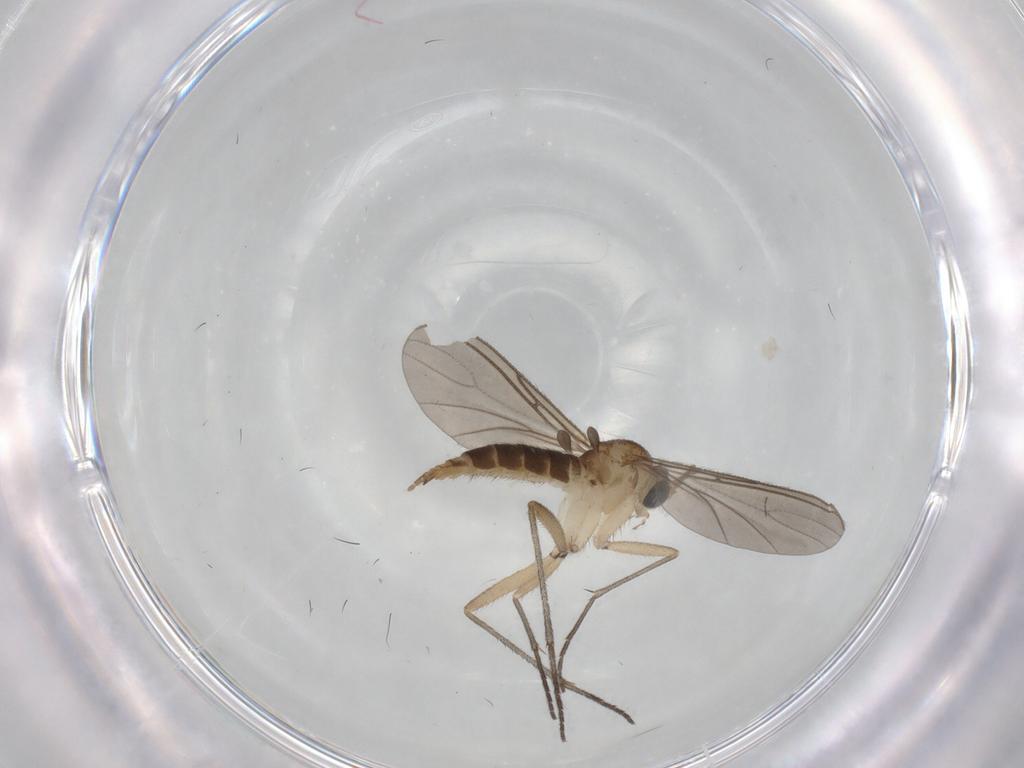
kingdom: Animalia
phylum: Arthropoda
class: Insecta
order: Diptera
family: Sciaridae
